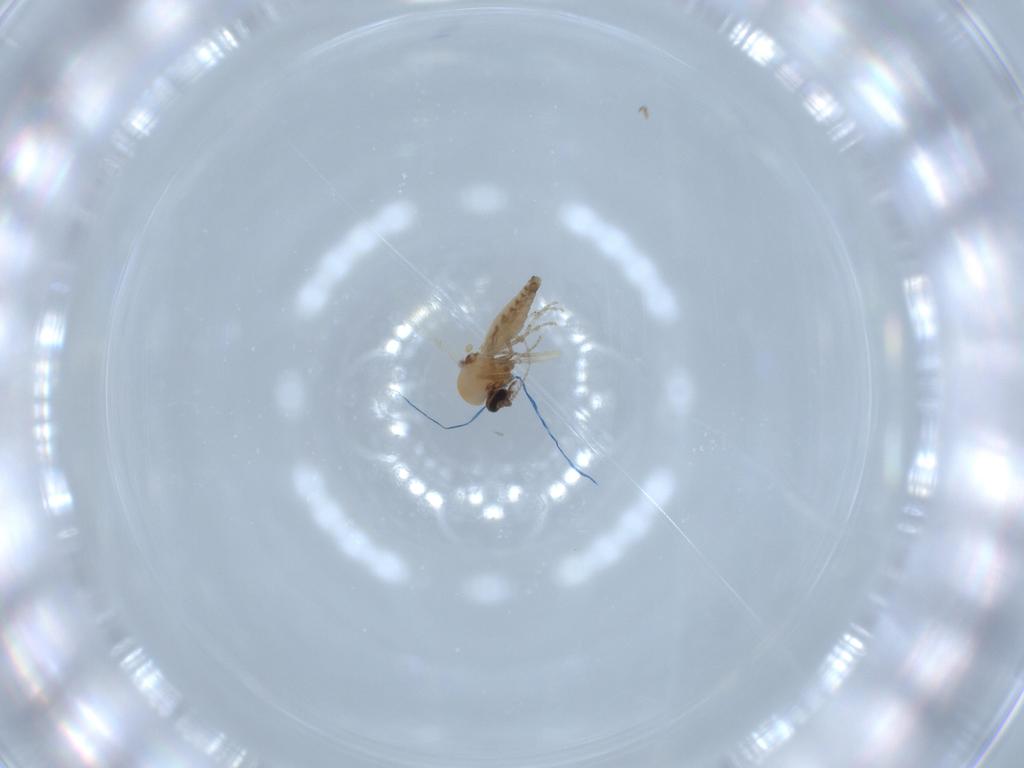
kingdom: Animalia
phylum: Arthropoda
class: Insecta
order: Diptera
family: Ceratopogonidae
